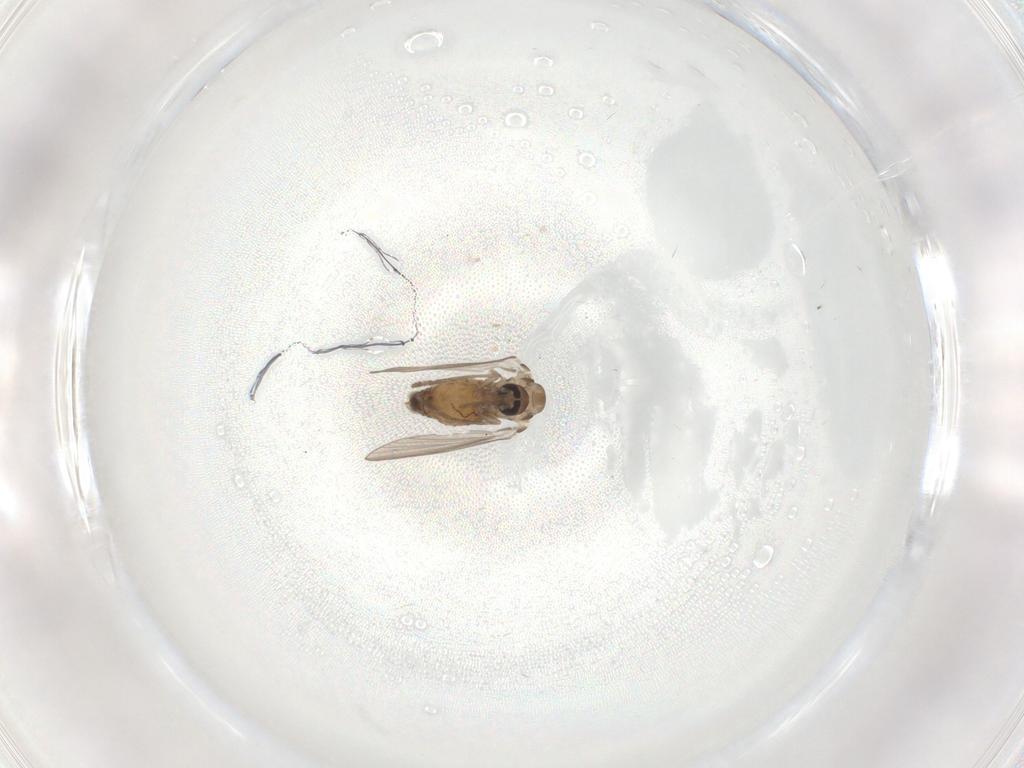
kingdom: Animalia
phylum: Arthropoda
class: Insecta
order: Diptera
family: Psychodidae
